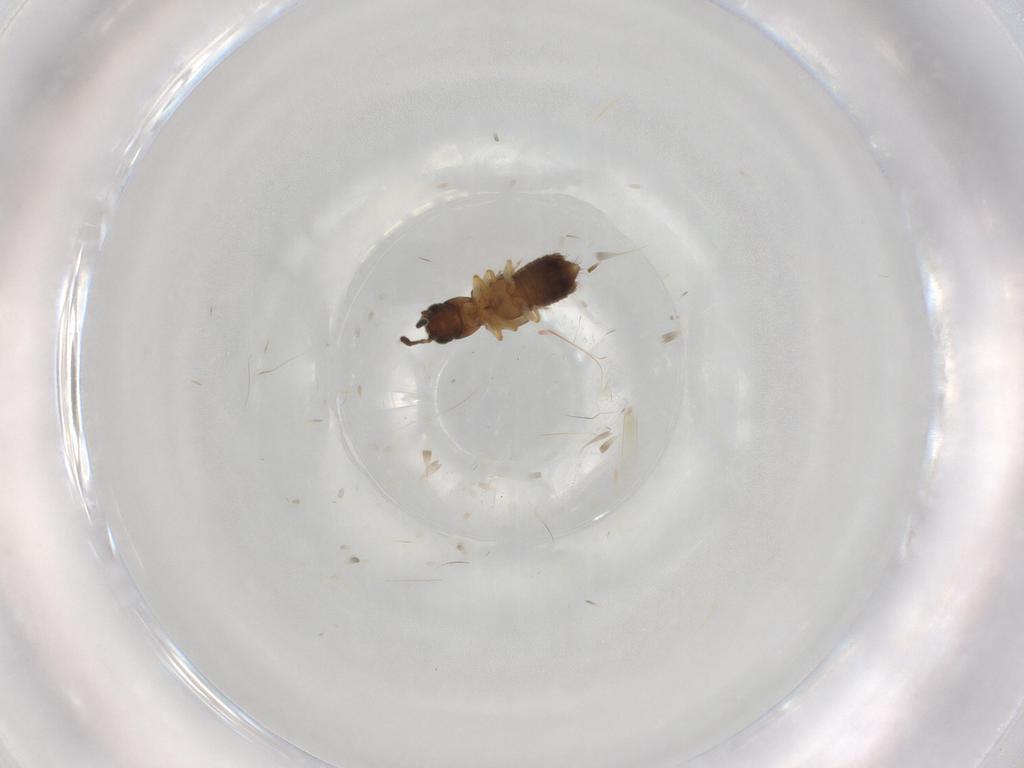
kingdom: Animalia
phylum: Arthropoda
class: Insecta
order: Coleoptera
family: Staphylinidae
